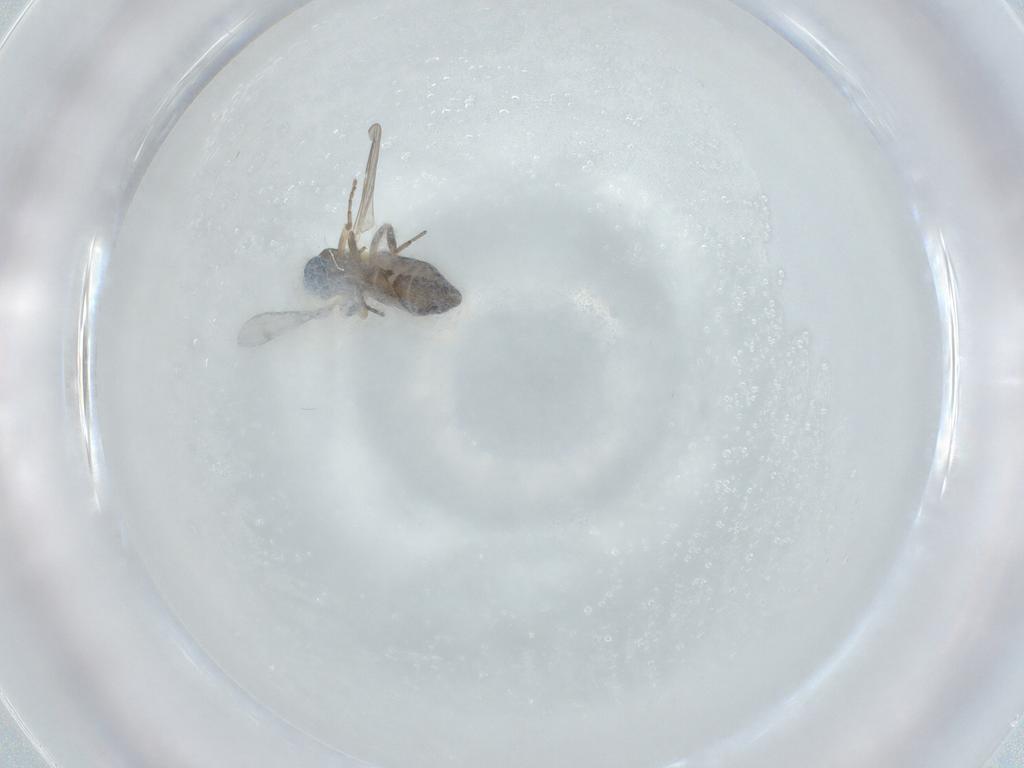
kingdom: Animalia
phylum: Arthropoda
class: Insecta
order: Diptera
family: Ceratopogonidae
